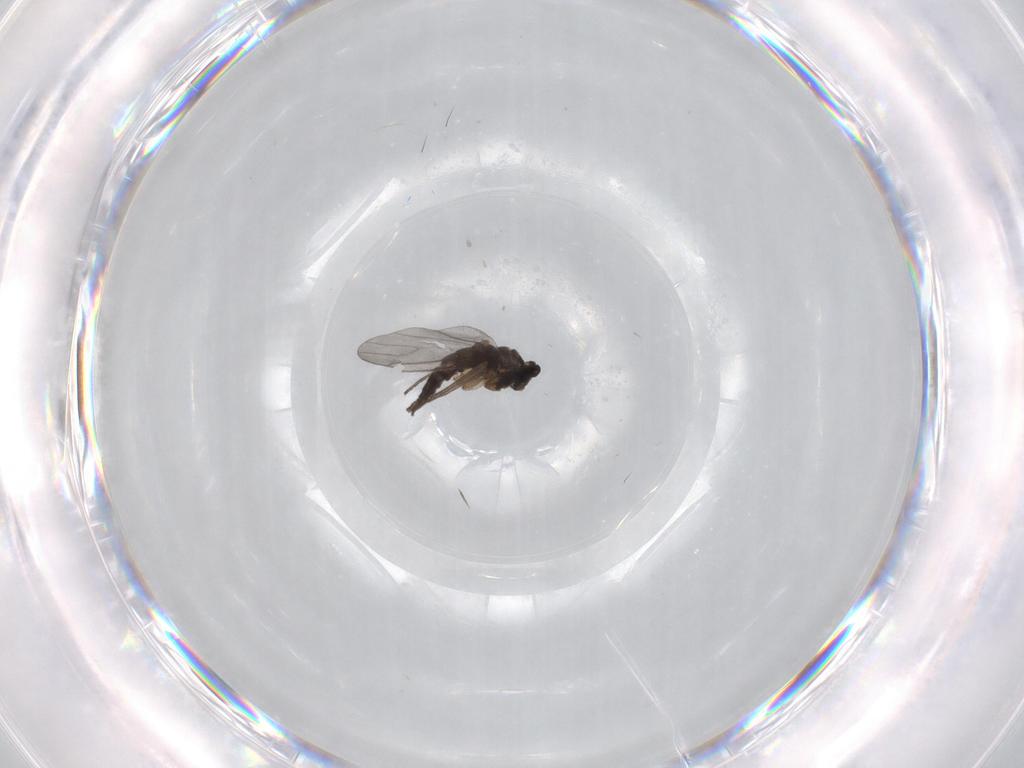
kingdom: Animalia
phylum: Arthropoda
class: Insecta
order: Diptera
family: Sciaridae
